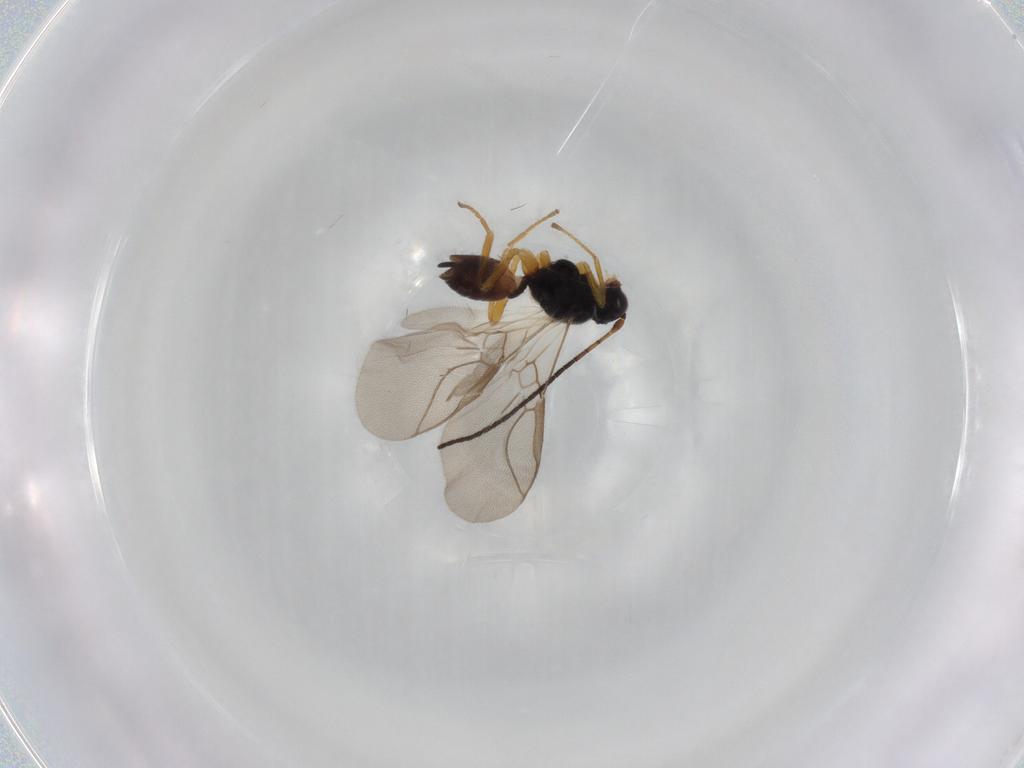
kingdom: Animalia
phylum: Arthropoda
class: Insecta
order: Hymenoptera
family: Braconidae
